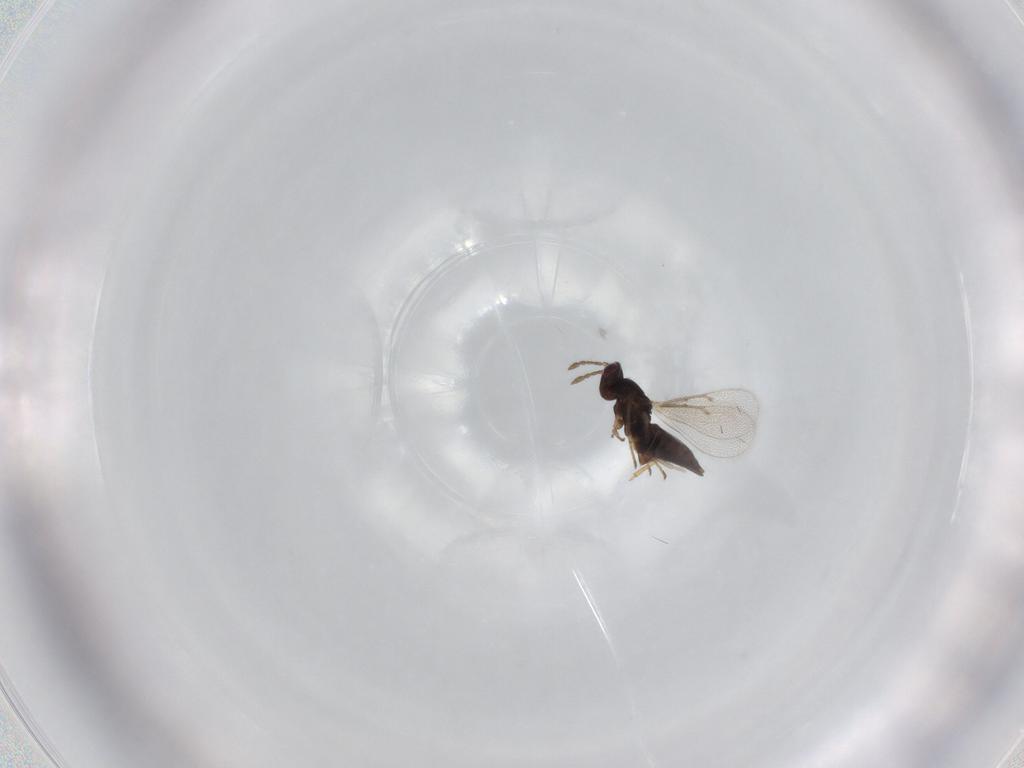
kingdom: Animalia
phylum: Arthropoda
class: Insecta
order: Hymenoptera
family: Eulophidae
